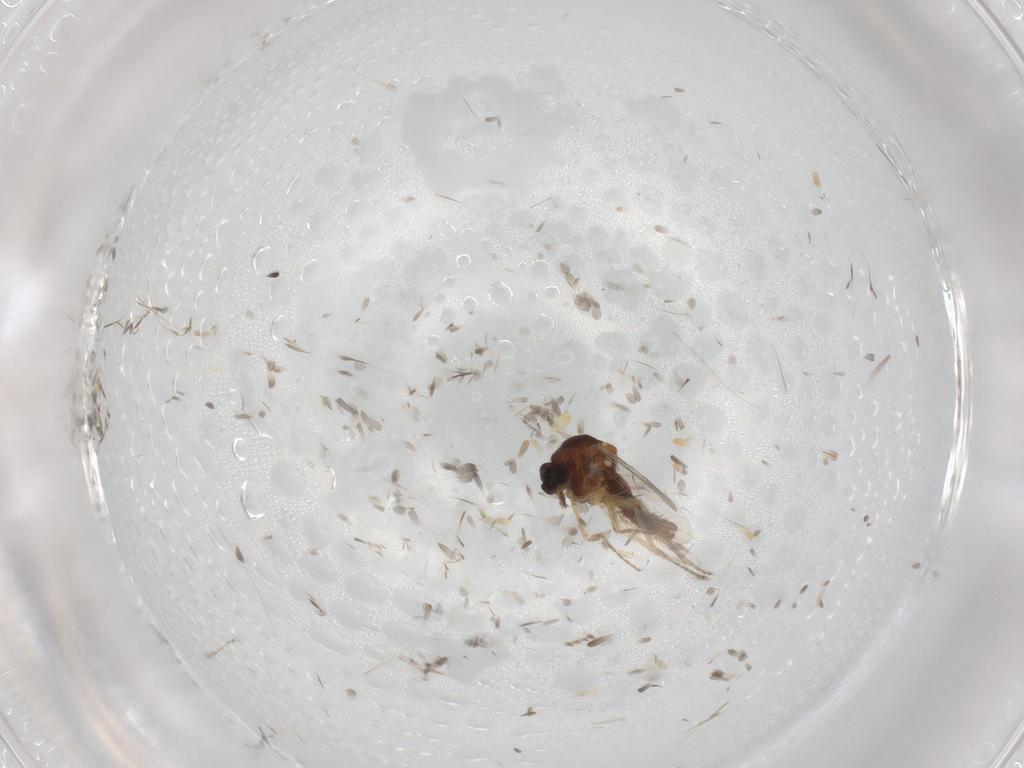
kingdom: Animalia
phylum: Arthropoda
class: Insecta
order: Diptera
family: Ceratopogonidae
